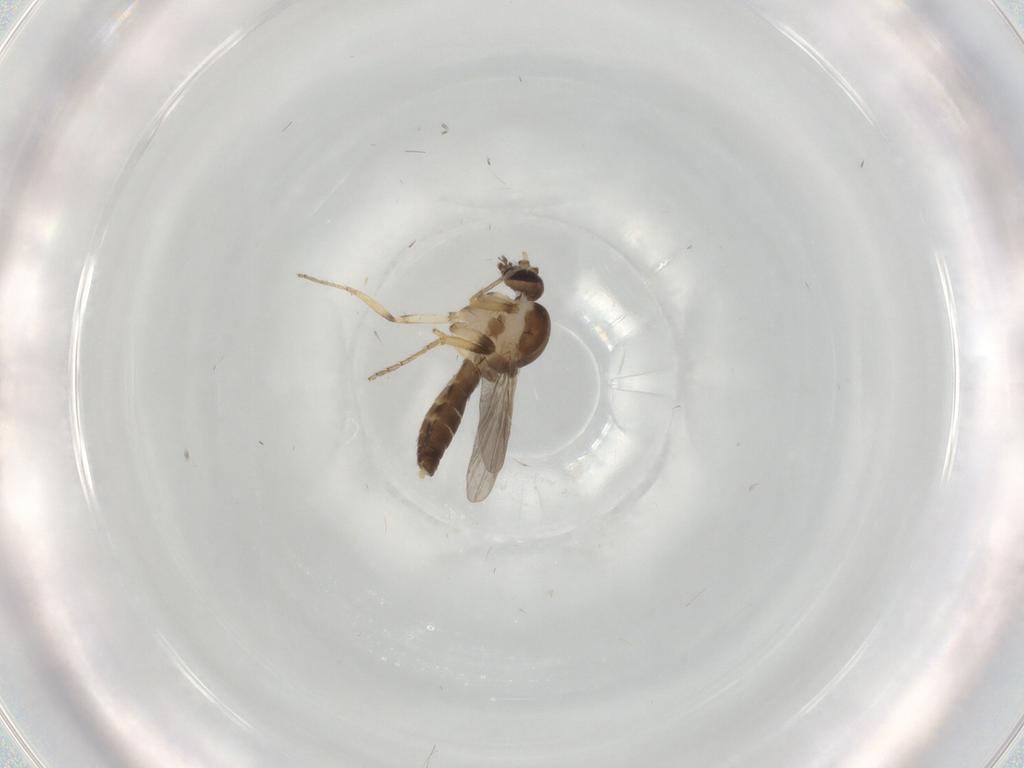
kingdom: Animalia
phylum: Arthropoda
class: Insecta
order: Diptera
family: Ceratopogonidae
